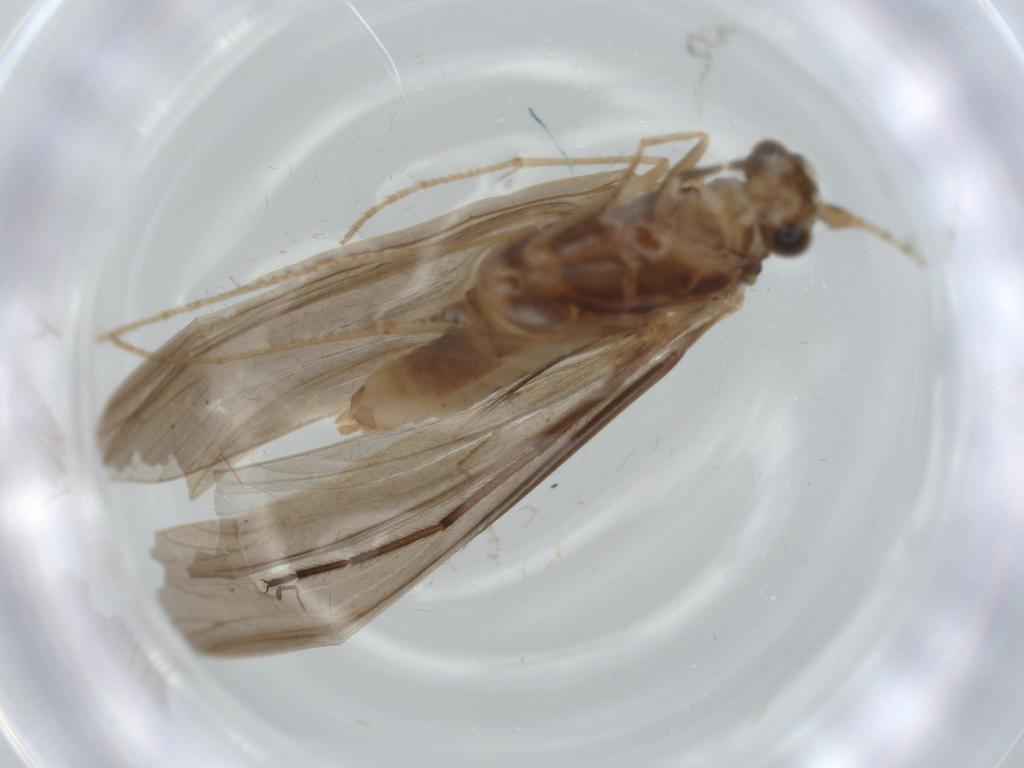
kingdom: Animalia
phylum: Arthropoda
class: Insecta
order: Trichoptera
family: Leptoceridae
